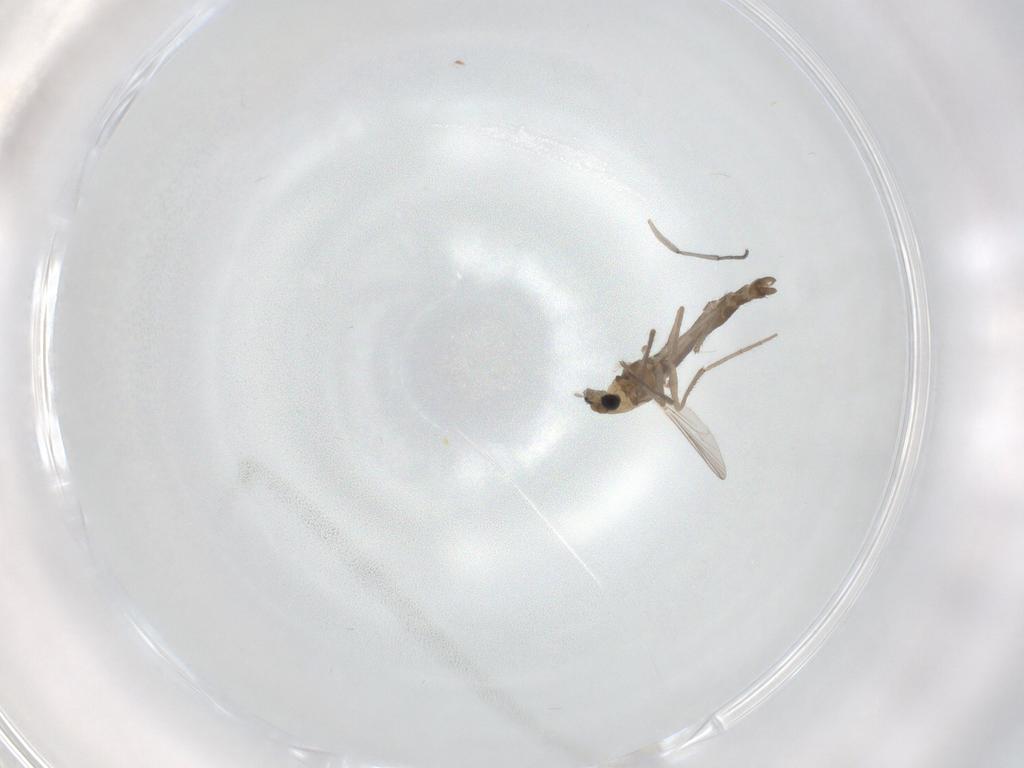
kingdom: Animalia
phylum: Arthropoda
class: Insecta
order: Diptera
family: Chironomidae
